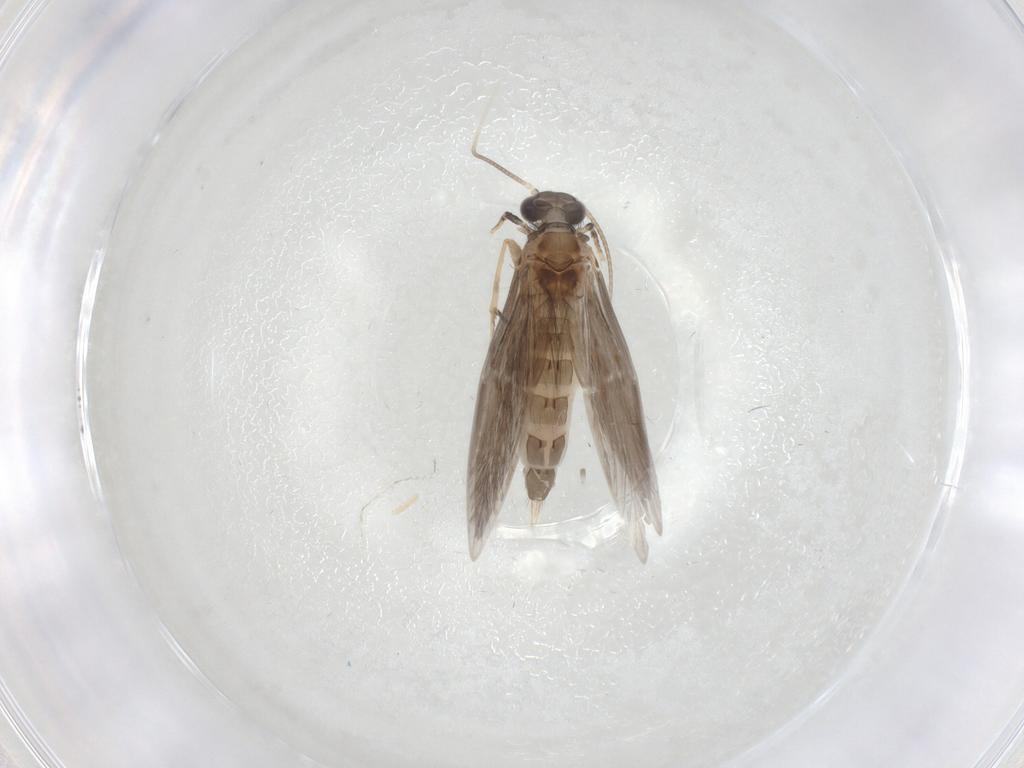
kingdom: Animalia
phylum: Arthropoda
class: Insecta
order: Trichoptera
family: Hydroptilidae
